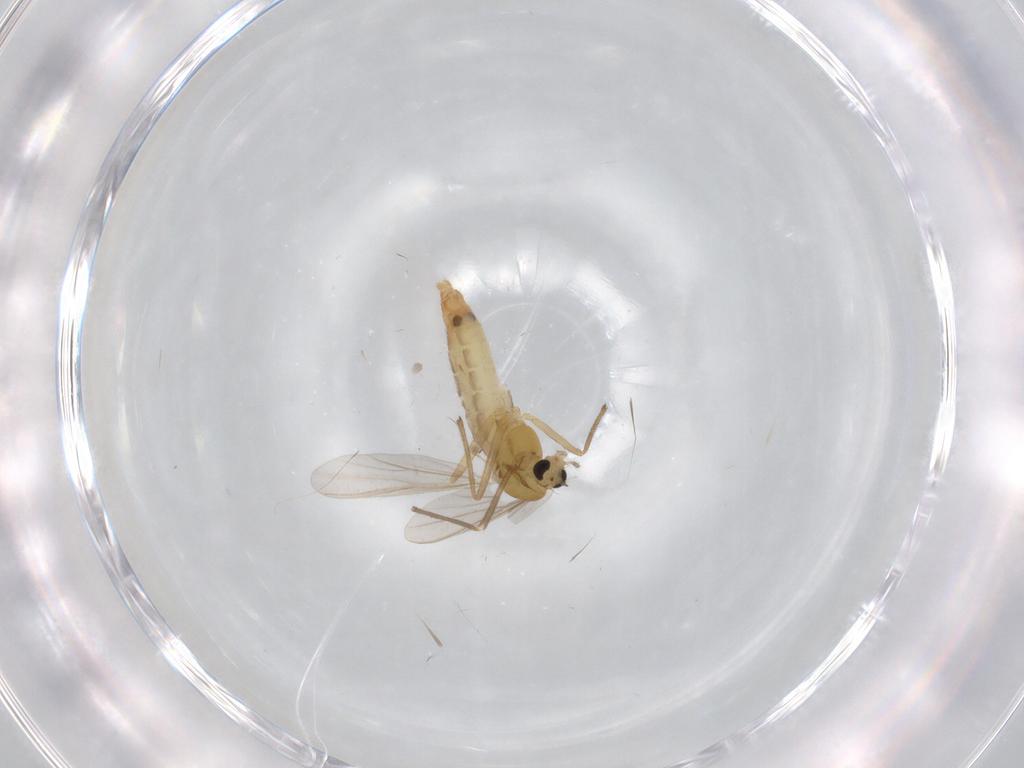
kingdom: Animalia
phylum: Arthropoda
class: Insecta
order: Diptera
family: Chironomidae
